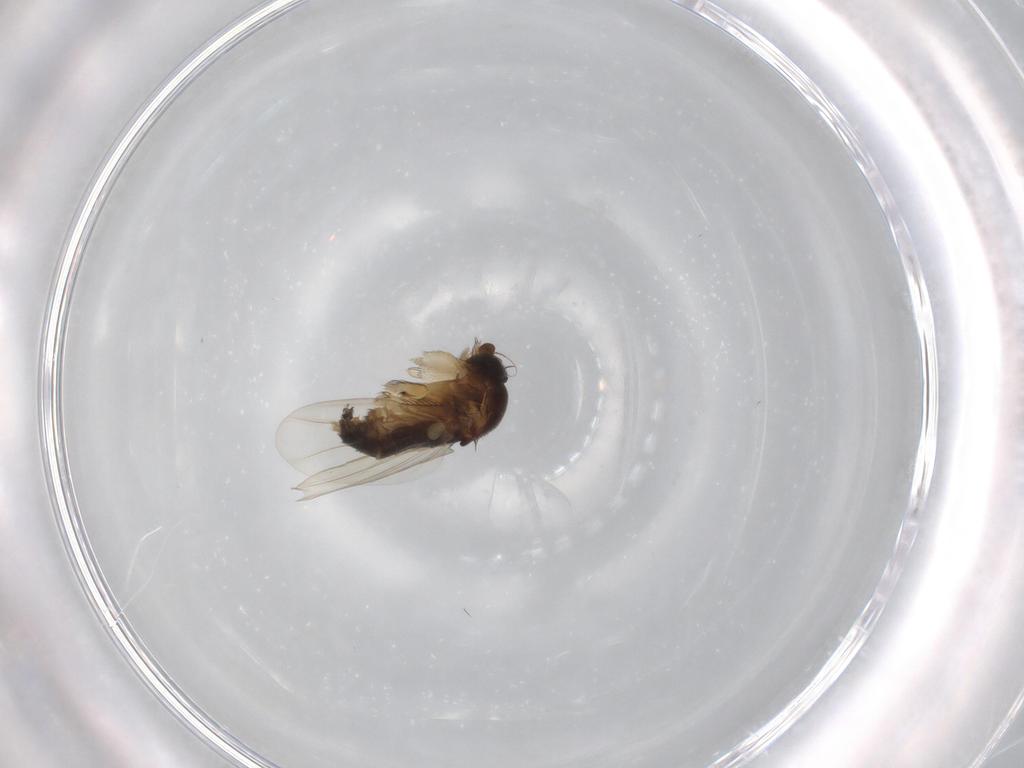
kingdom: Animalia
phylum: Arthropoda
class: Insecta
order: Diptera
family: Phoridae
